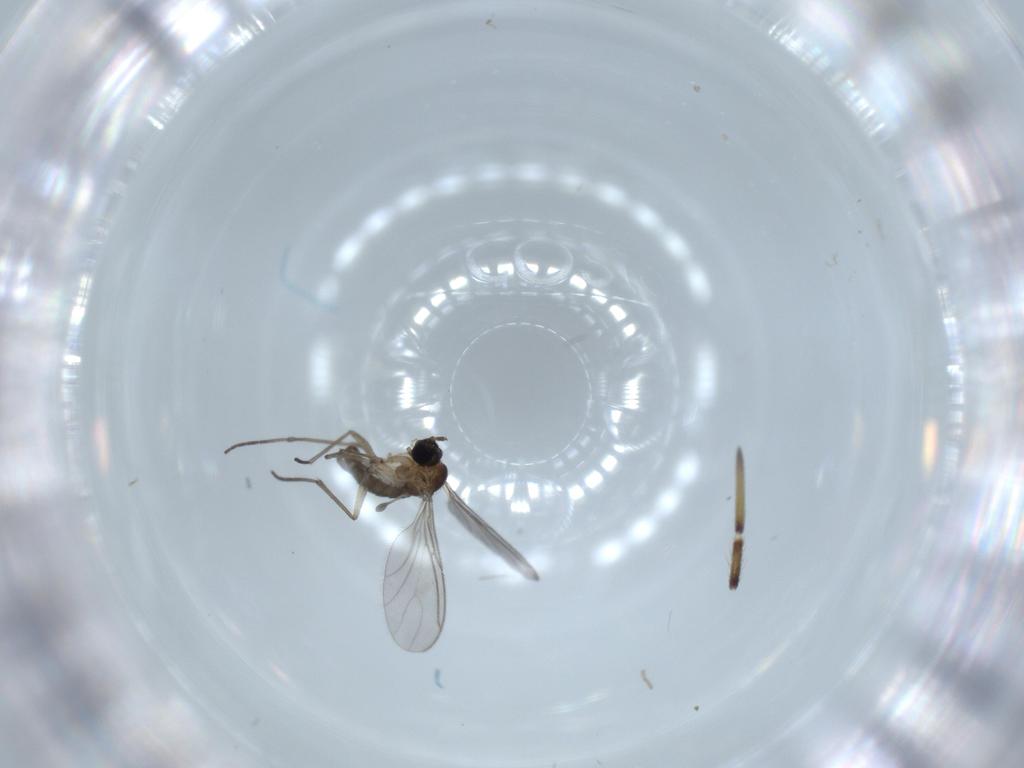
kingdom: Animalia
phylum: Arthropoda
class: Insecta
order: Diptera
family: Sciaridae
